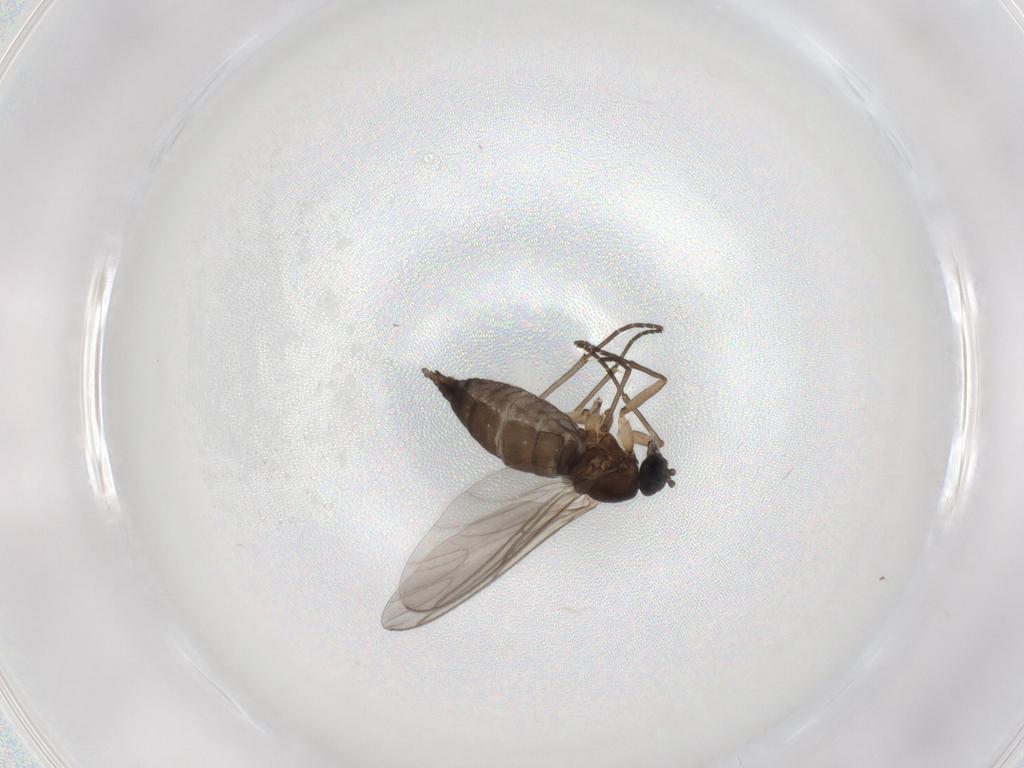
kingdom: Animalia
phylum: Arthropoda
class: Insecta
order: Diptera
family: Sciaridae
